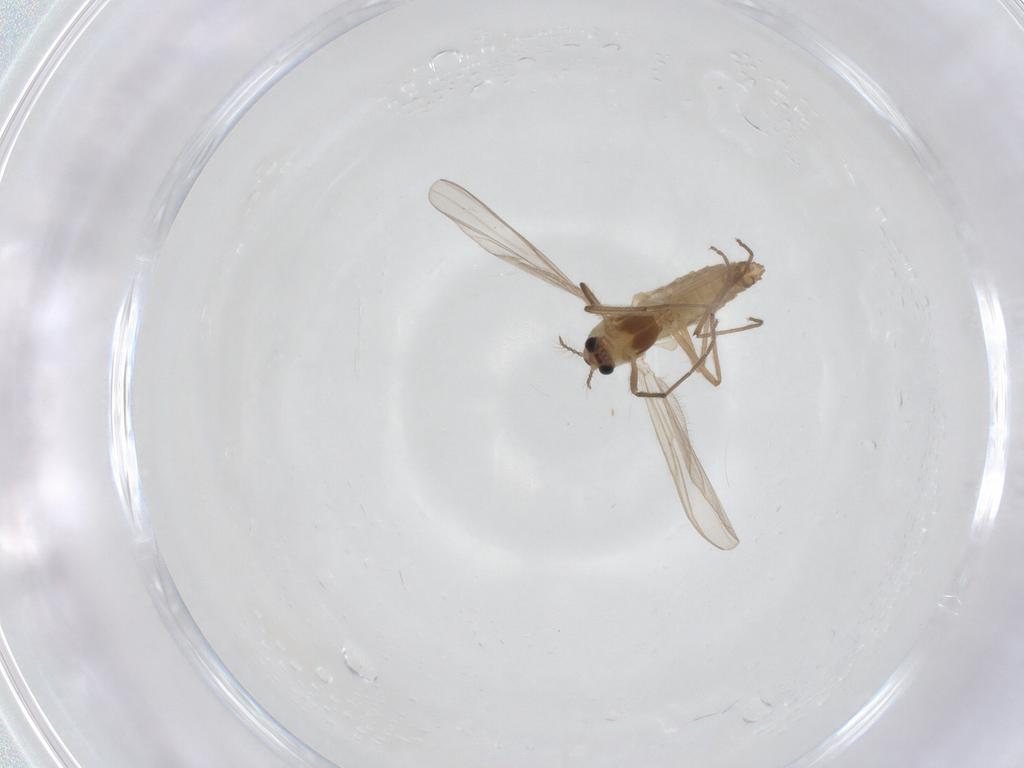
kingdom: Animalia
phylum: Arthropoda
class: Insecta
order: Diptera
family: Chironomidae
